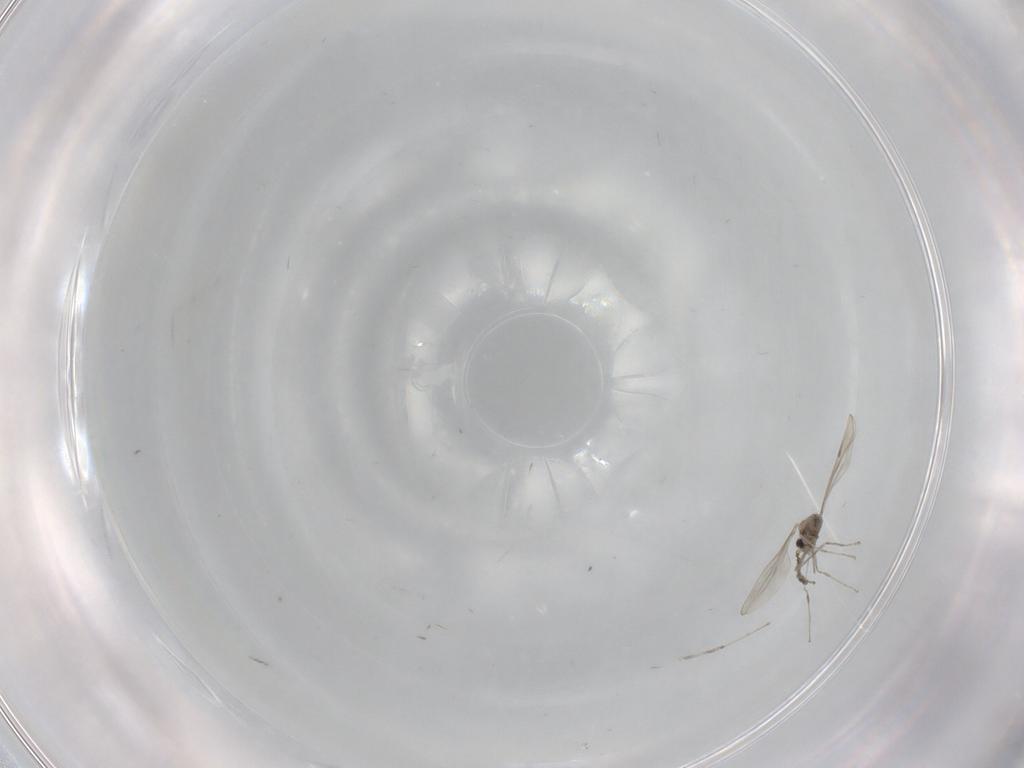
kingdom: Animalia
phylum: Arthropoda
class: Insecta
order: Diptera
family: Cecidomyiidae
